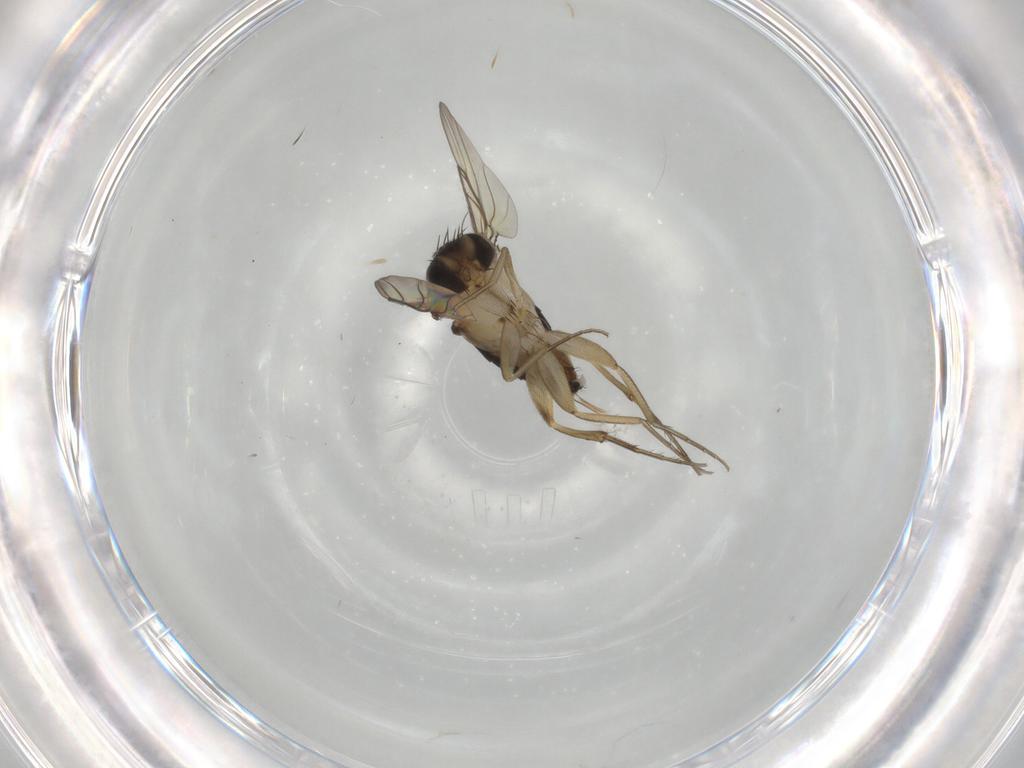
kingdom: Animalia
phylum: Arthropoda
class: Insecta
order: Diptera
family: Phoridae
